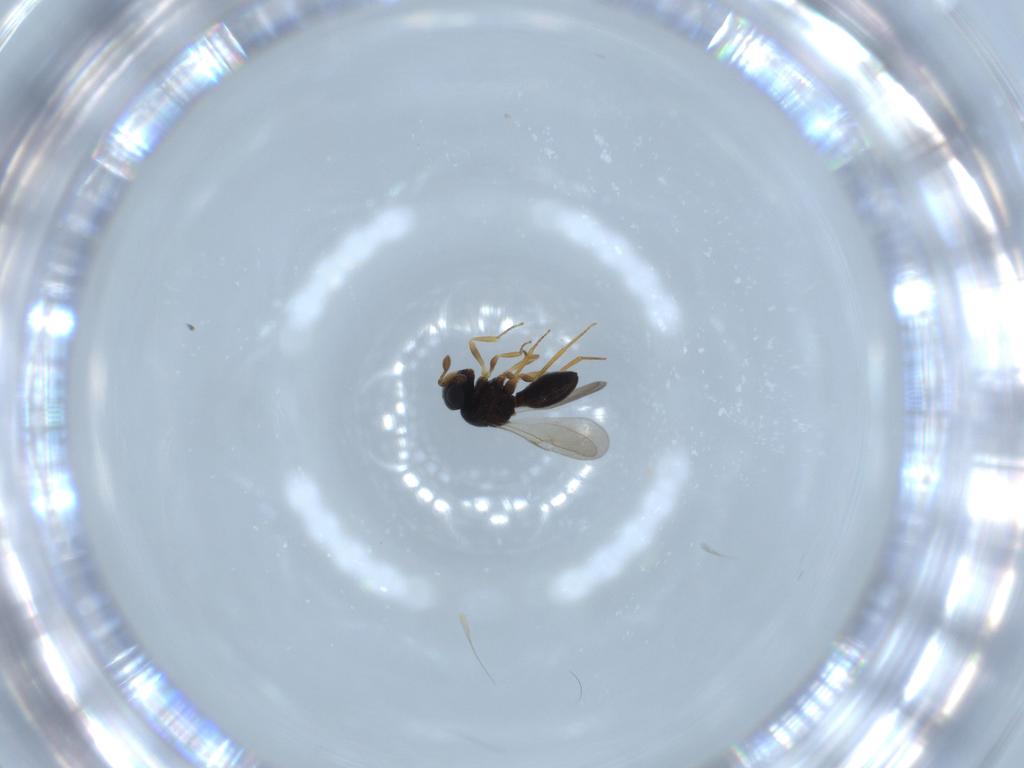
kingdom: Animalia
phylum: Arthropoda
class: Insecta
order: Hymenoptera
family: Scelionidae
